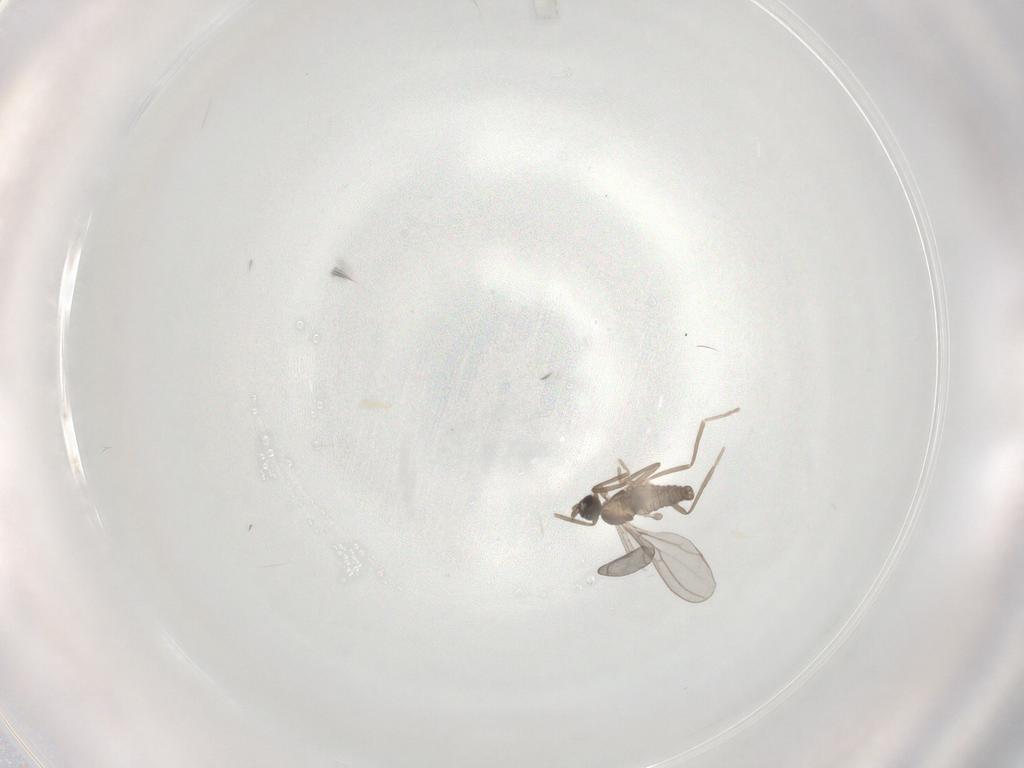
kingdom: Animalia
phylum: Arthropoda
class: Insecta
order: Diptera
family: Cecidomyiidae
